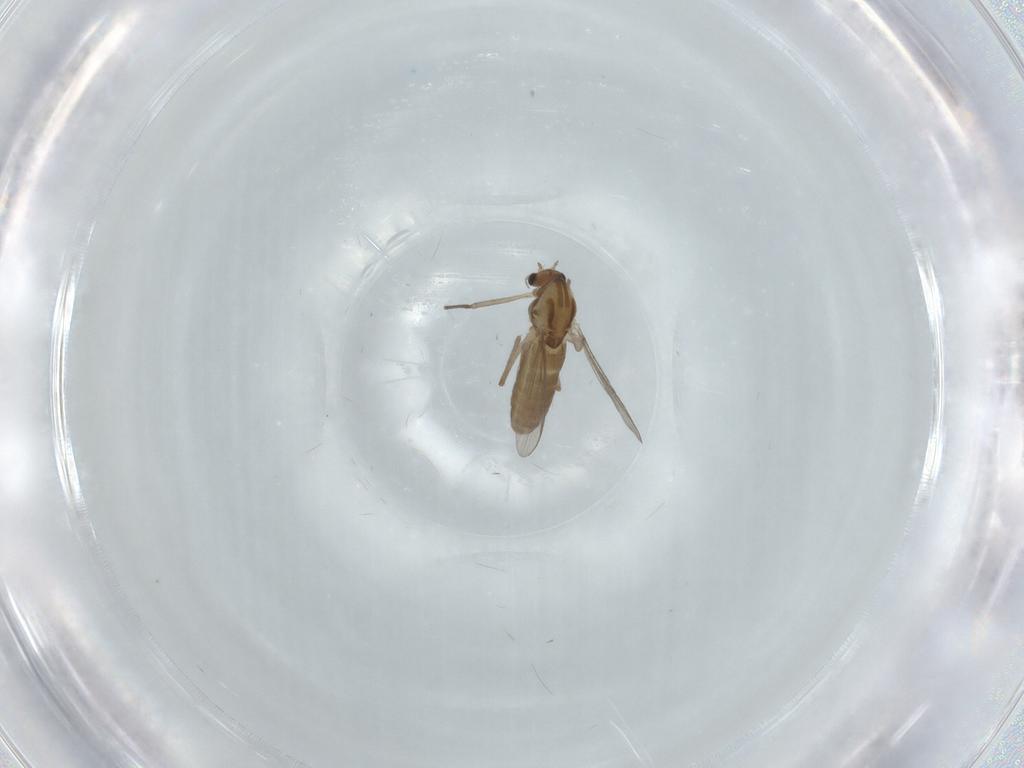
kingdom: Animalia
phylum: Arthropoda
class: Insecta
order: Diptera
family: Chironomidae
